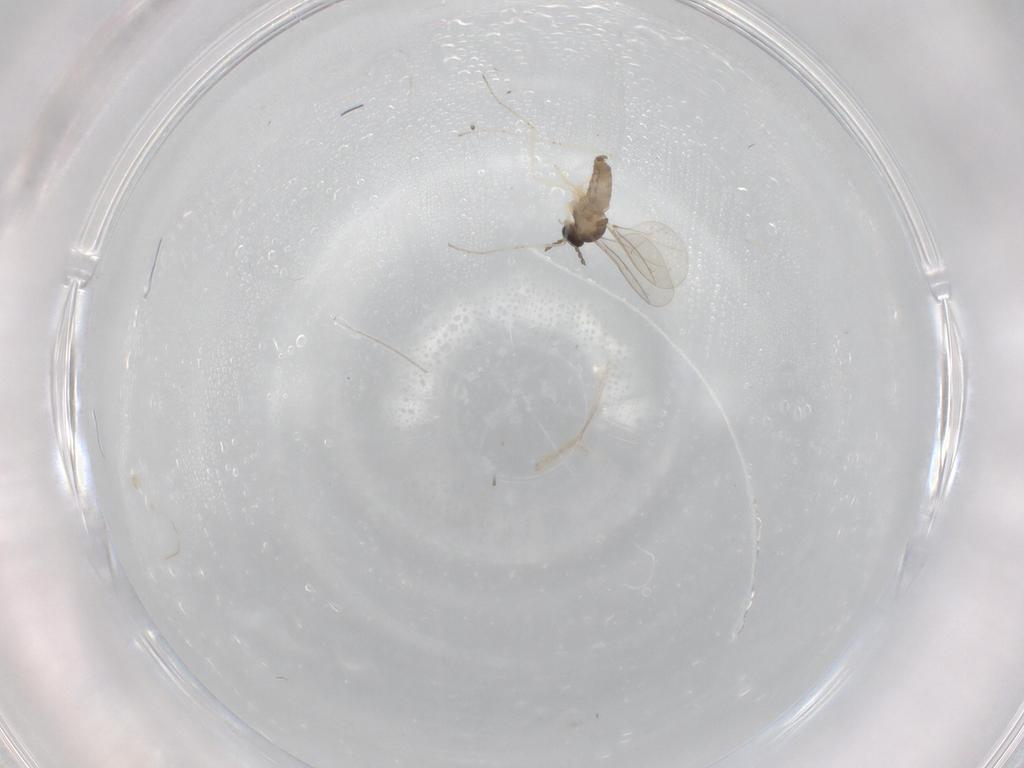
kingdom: Animalia
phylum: Arthropoda
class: Insecta
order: Diptera
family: Cecidomyiidae
